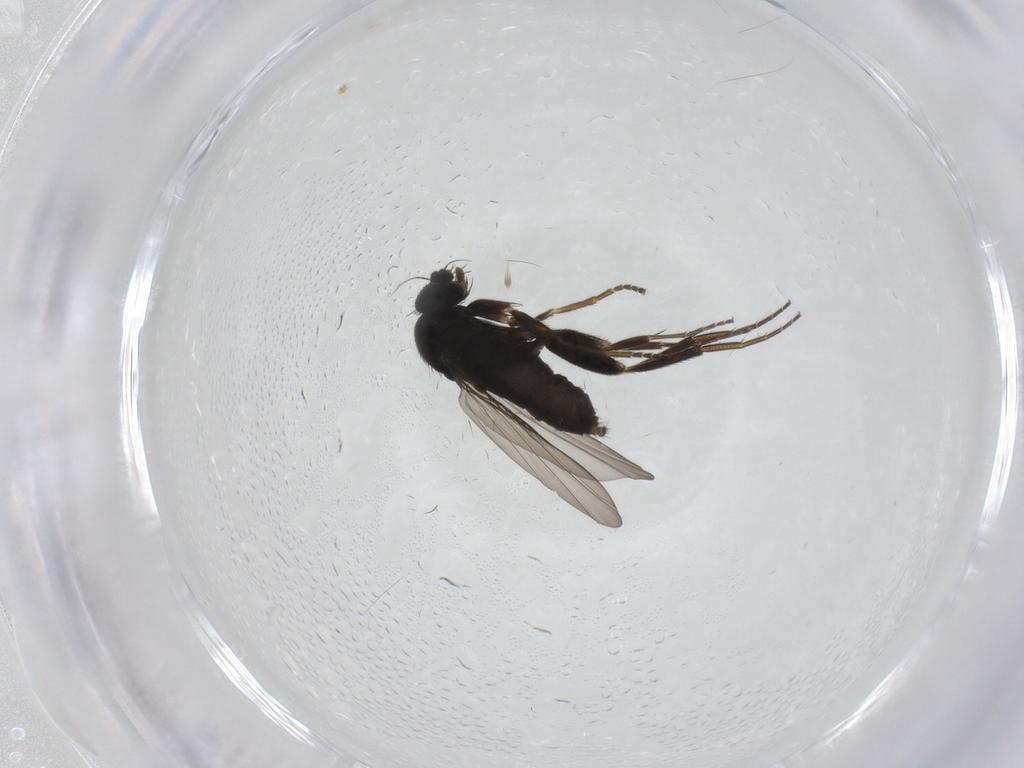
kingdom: Animalia
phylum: Arthropoda
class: Insecta
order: Diptera
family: Phoridae
